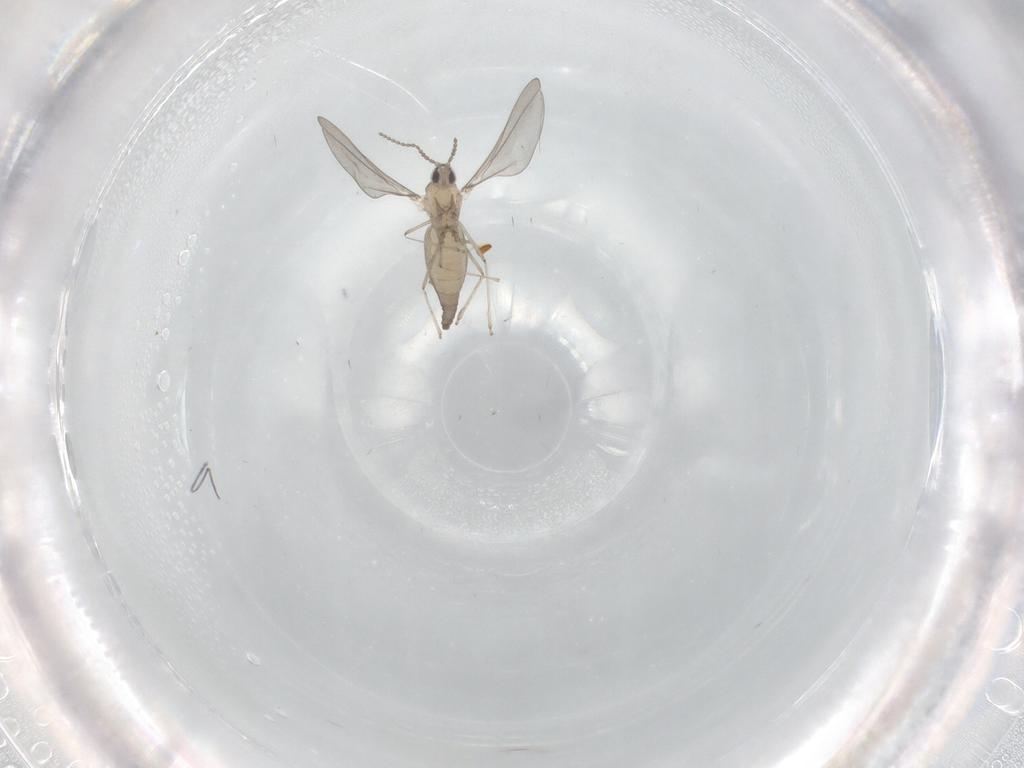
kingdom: Animalia
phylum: Arthropoda
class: Insecta
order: Diptera
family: Cecidomyiidae
